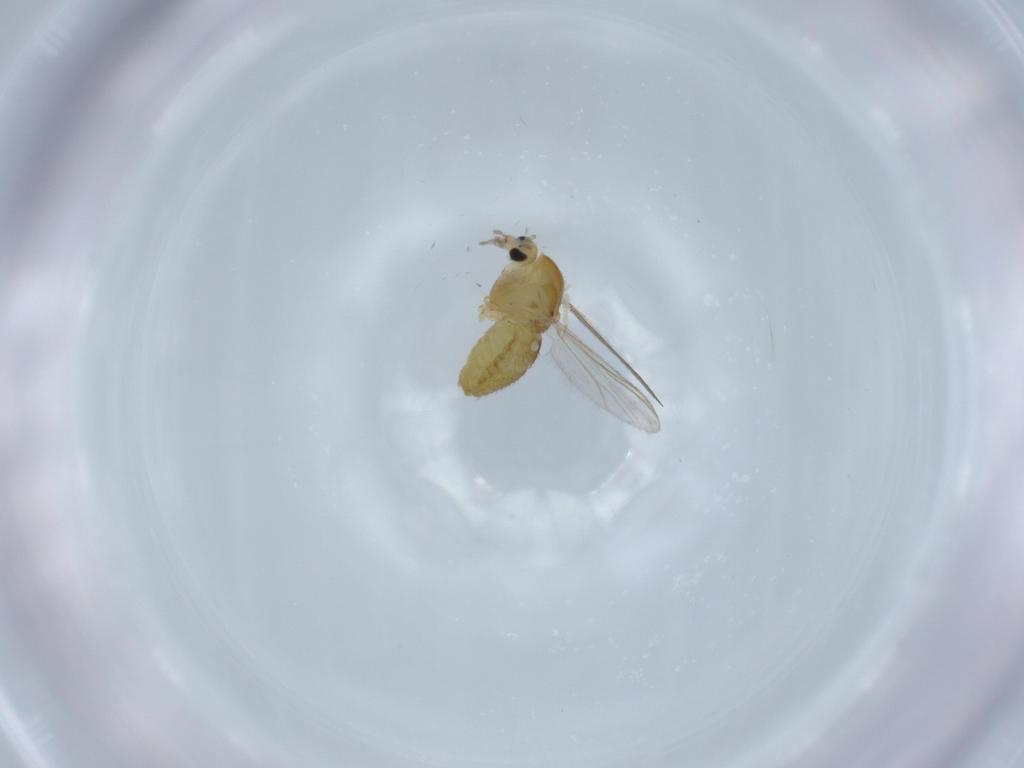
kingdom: Animalia
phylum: Arthropoda
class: Insecta
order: Diptera
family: Chironomidae
